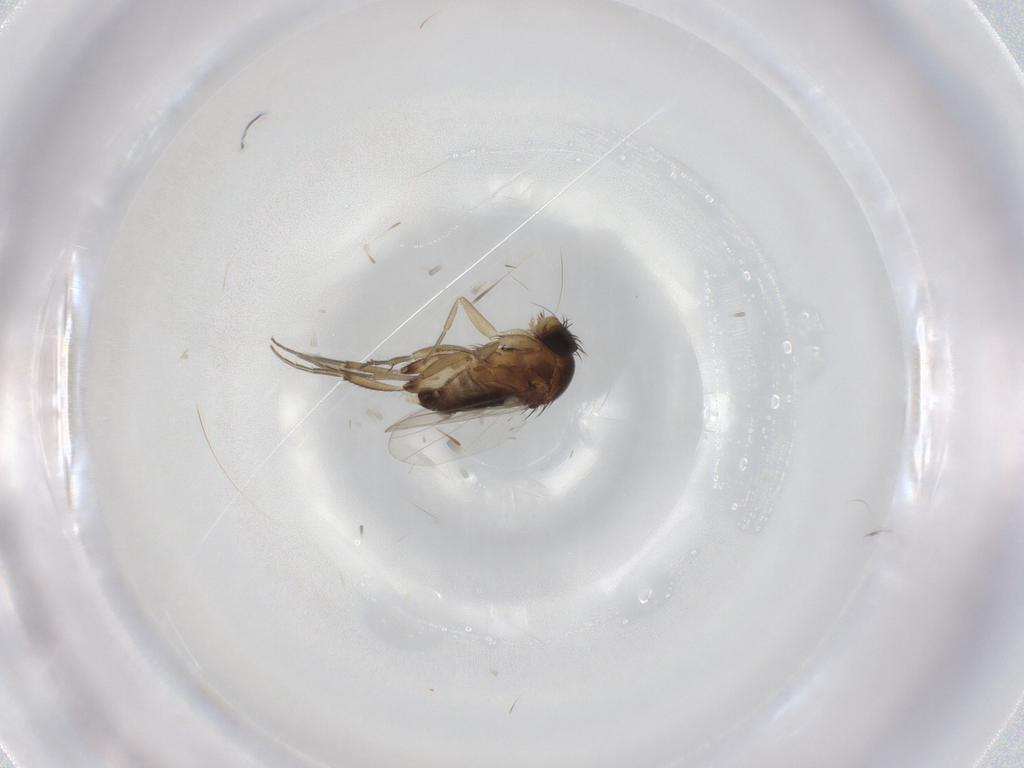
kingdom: Animalia
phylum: Arthropoda
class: Insecta
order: Diptera
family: Phoridae
